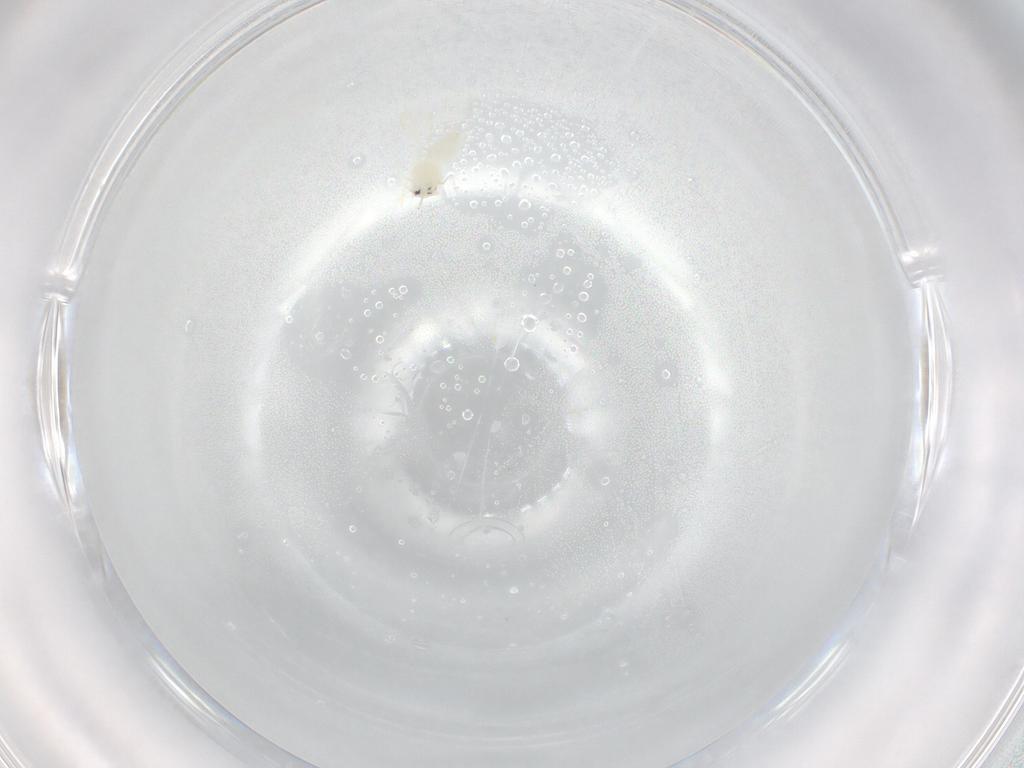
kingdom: Animalia
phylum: Arthropoda
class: Insecta
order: Hemiptera
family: Aleyrodidae
